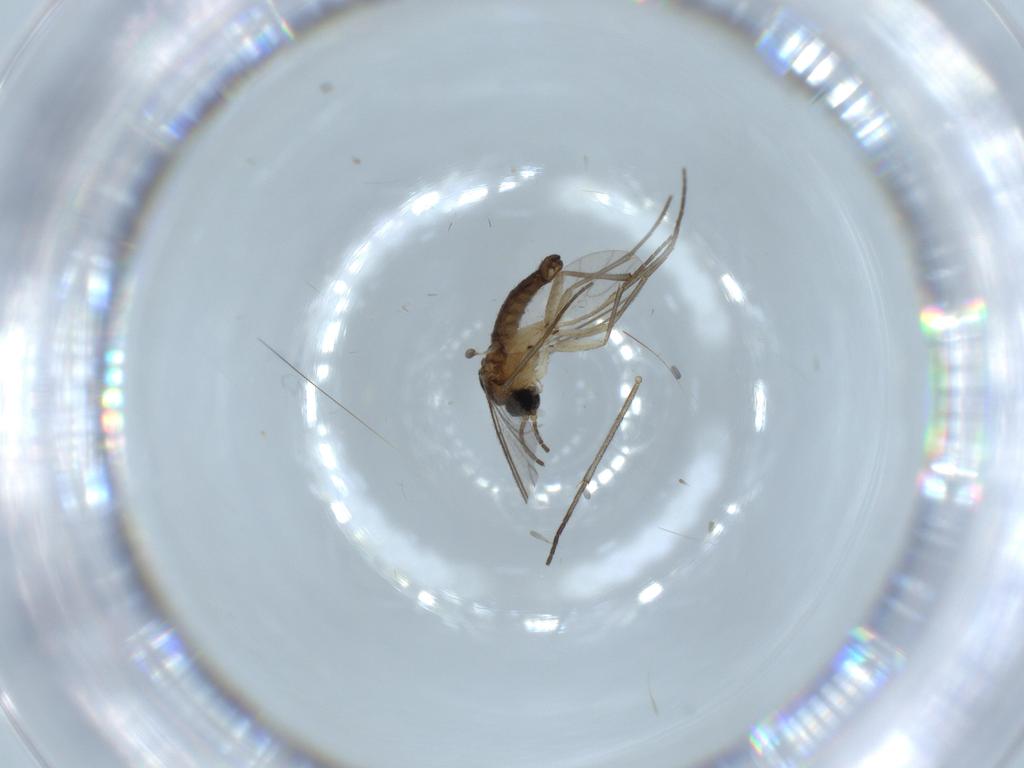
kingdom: Animalia
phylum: Arthropoda
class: Insecta
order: Diptera
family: Sciaridae
